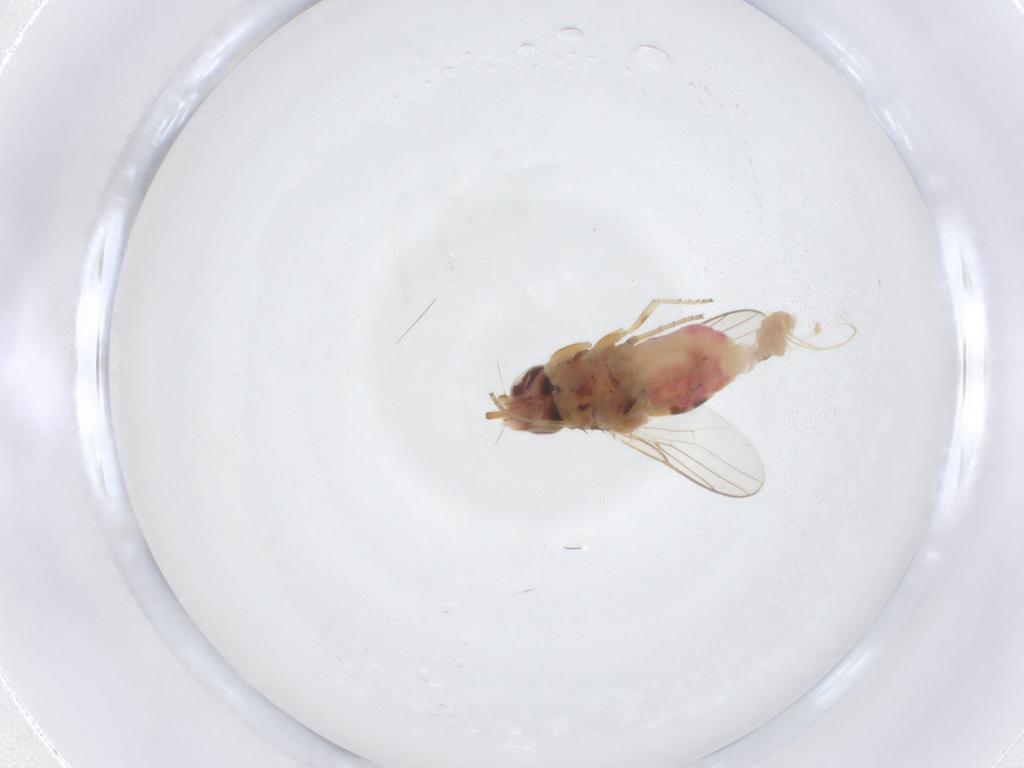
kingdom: Animalia
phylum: Arthropoda
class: Insecta
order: Diptera
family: Chloropidae
